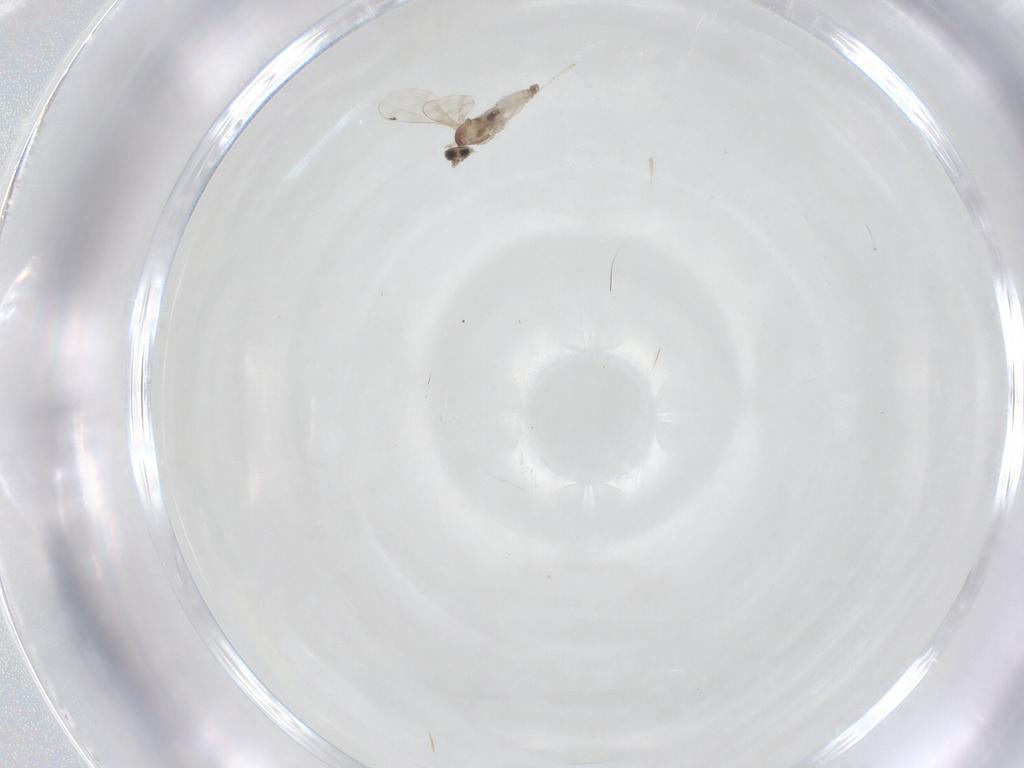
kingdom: Animalia
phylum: Arthropoda
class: Insecta
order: Diptera
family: Cecidomyiidae
